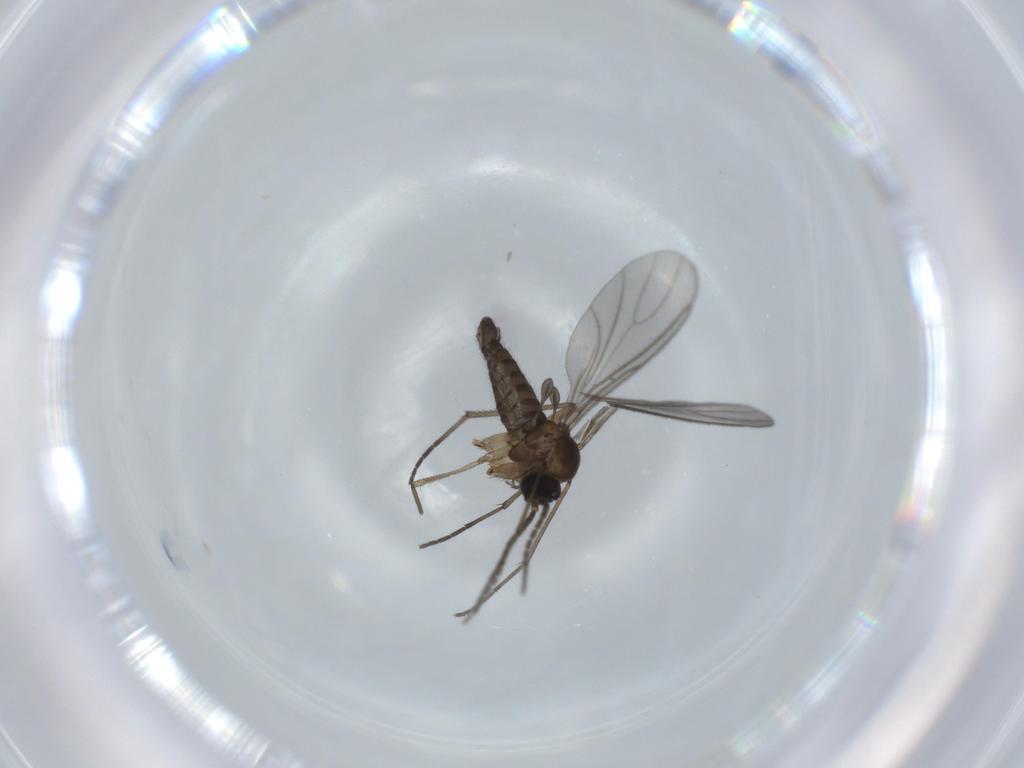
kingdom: Animalia
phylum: Arthropoda
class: Insecta
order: Diptera
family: Sciaridae
